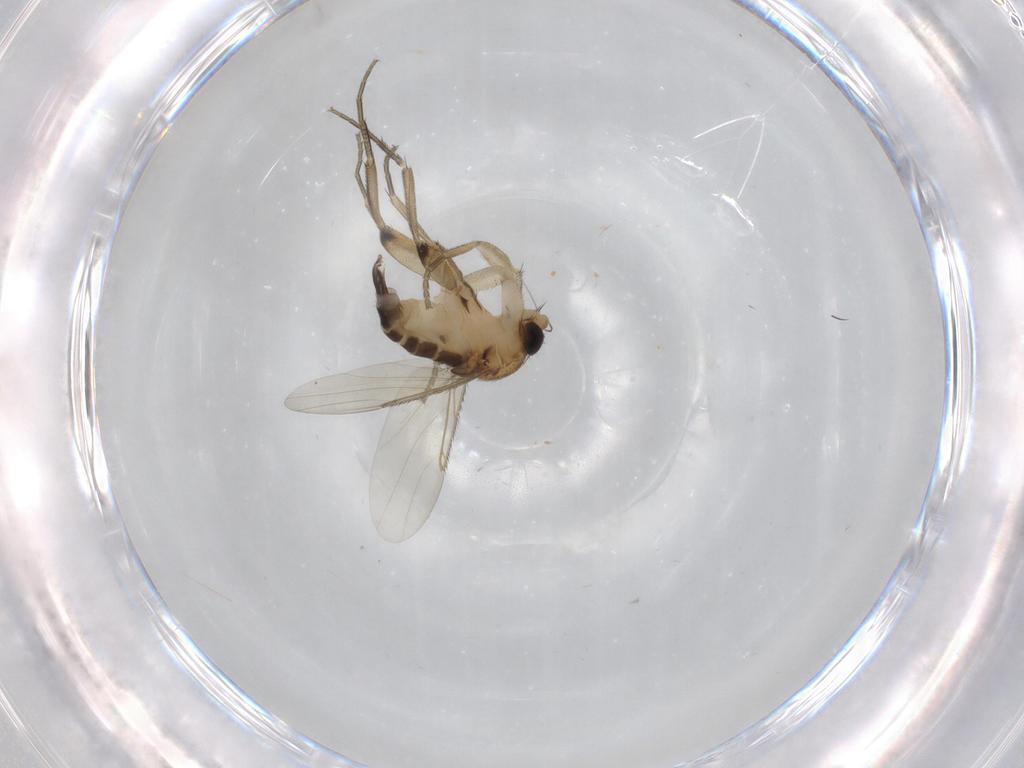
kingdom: Animalia
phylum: Arthropoda
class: Insecta
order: Diptera
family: Phoridae
